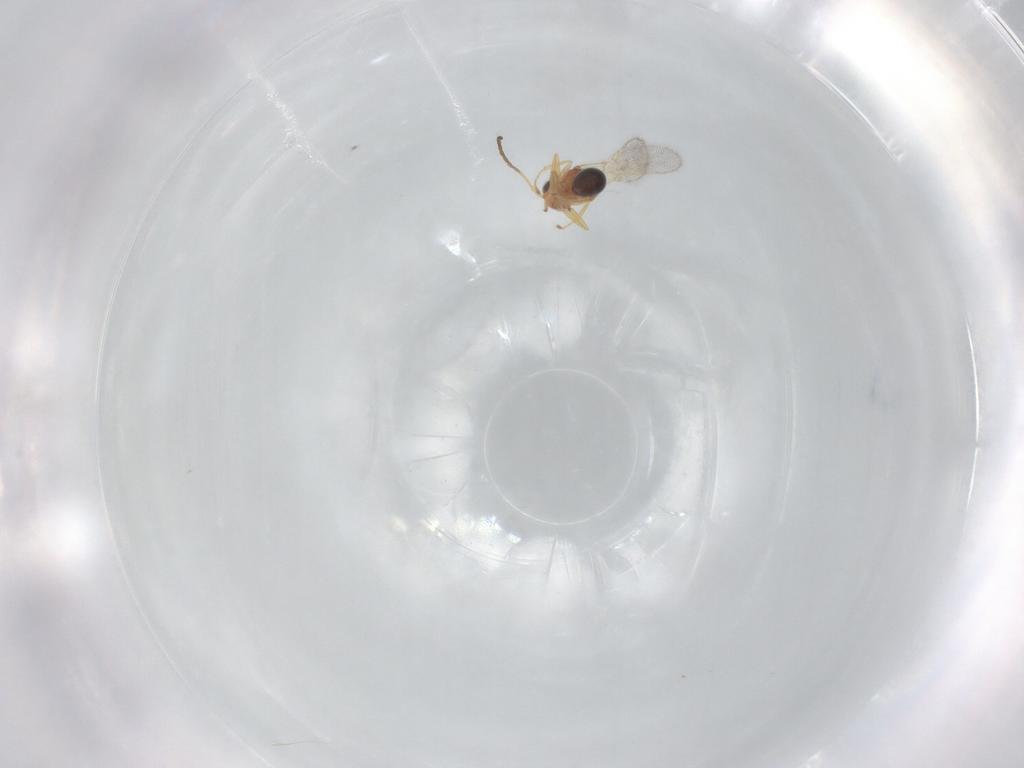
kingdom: Animalia
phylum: Arthropoda
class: Insecta
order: Hymenoptera
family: Figitidae
